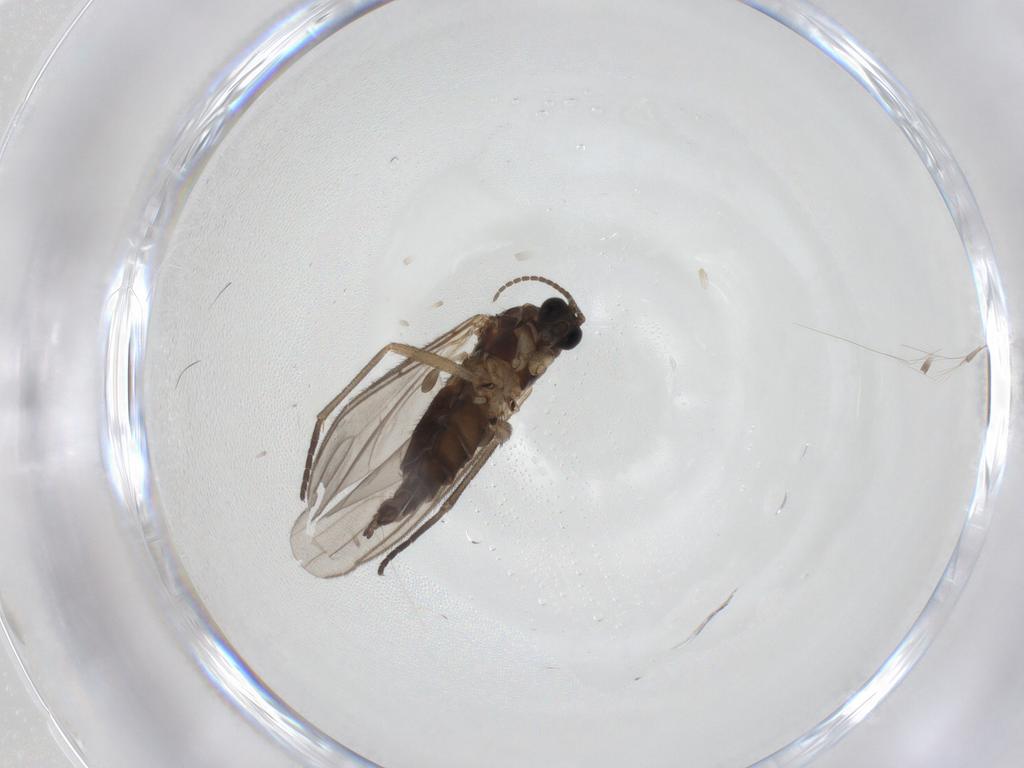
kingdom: Animalia
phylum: Arthropoda
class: Insecta
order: Diptera
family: Sciaridae
